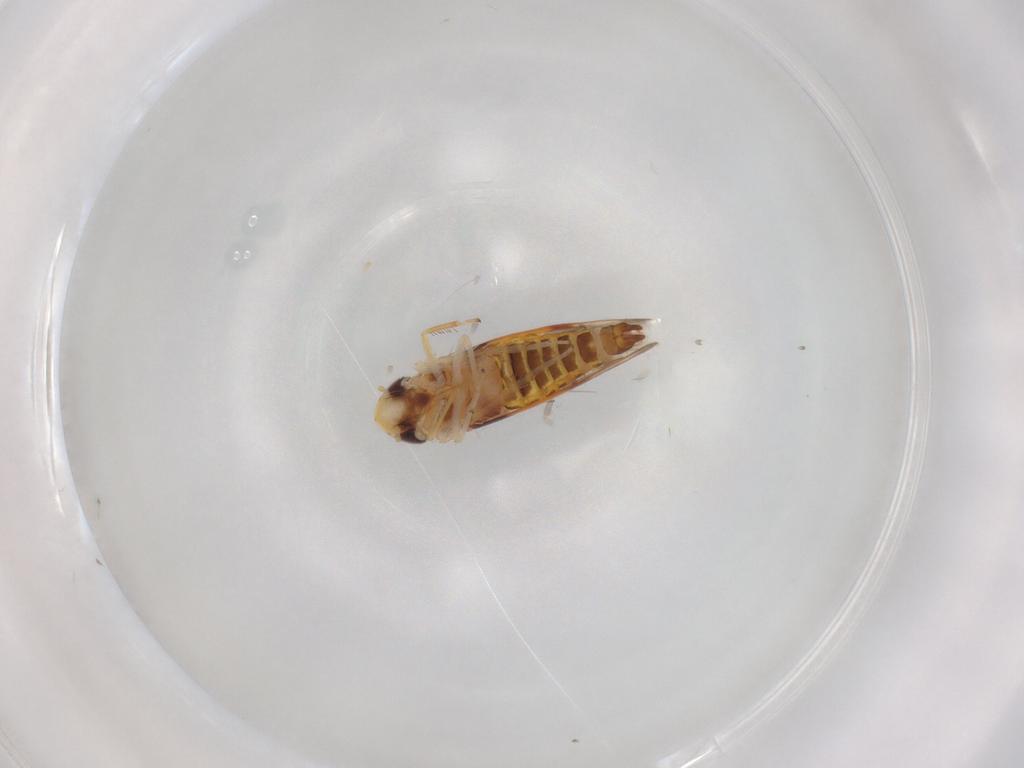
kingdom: Animalia
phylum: Arthropoda
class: Insecta
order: Hemiptera
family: Cicadellidae
